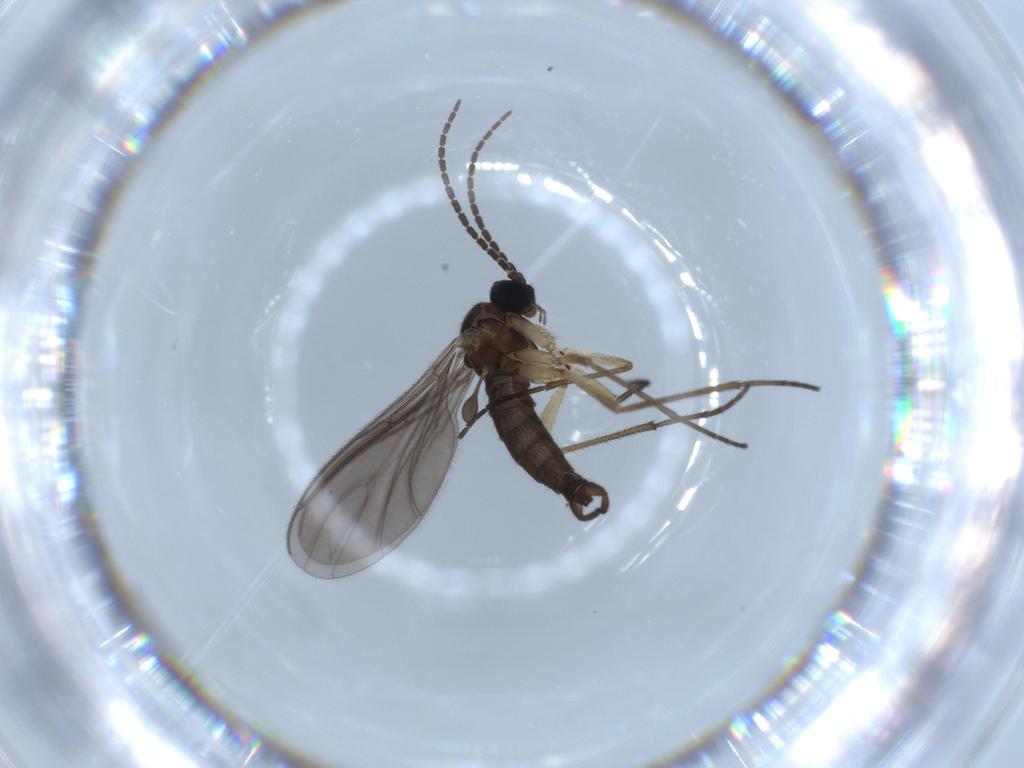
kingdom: Animalia
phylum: Arthropoda
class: Insecta
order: Diptera
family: Sciaridae
